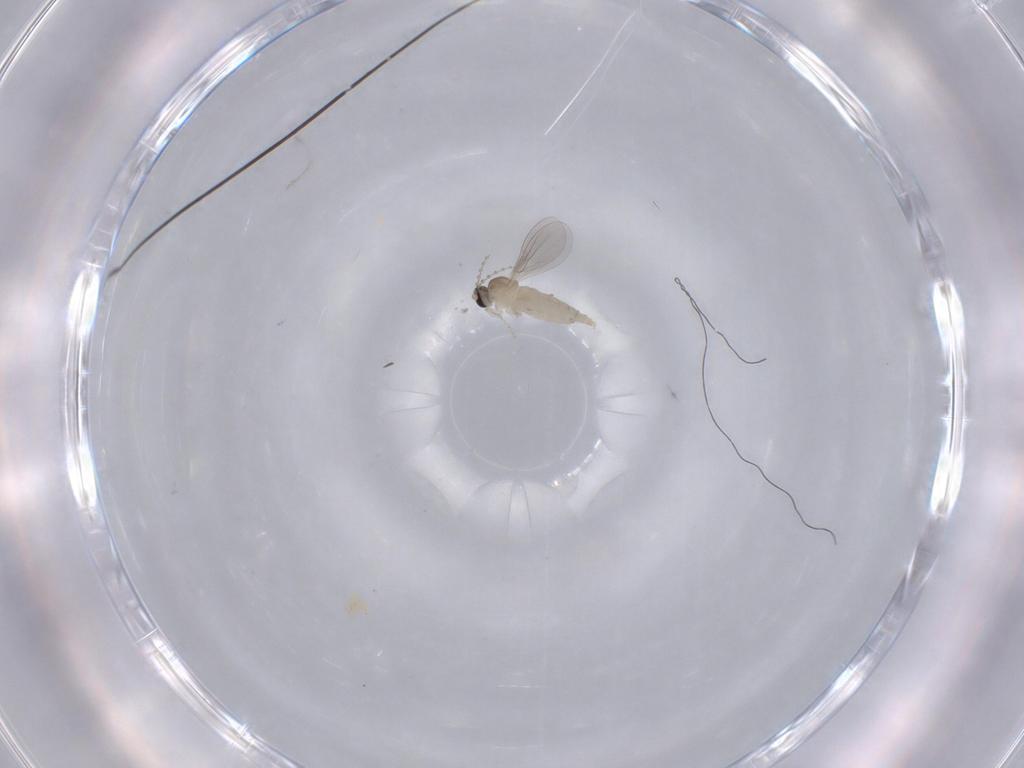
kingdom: Animalia
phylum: Arthropoda
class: Insecta
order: Diptera
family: Cecidomyiidae
